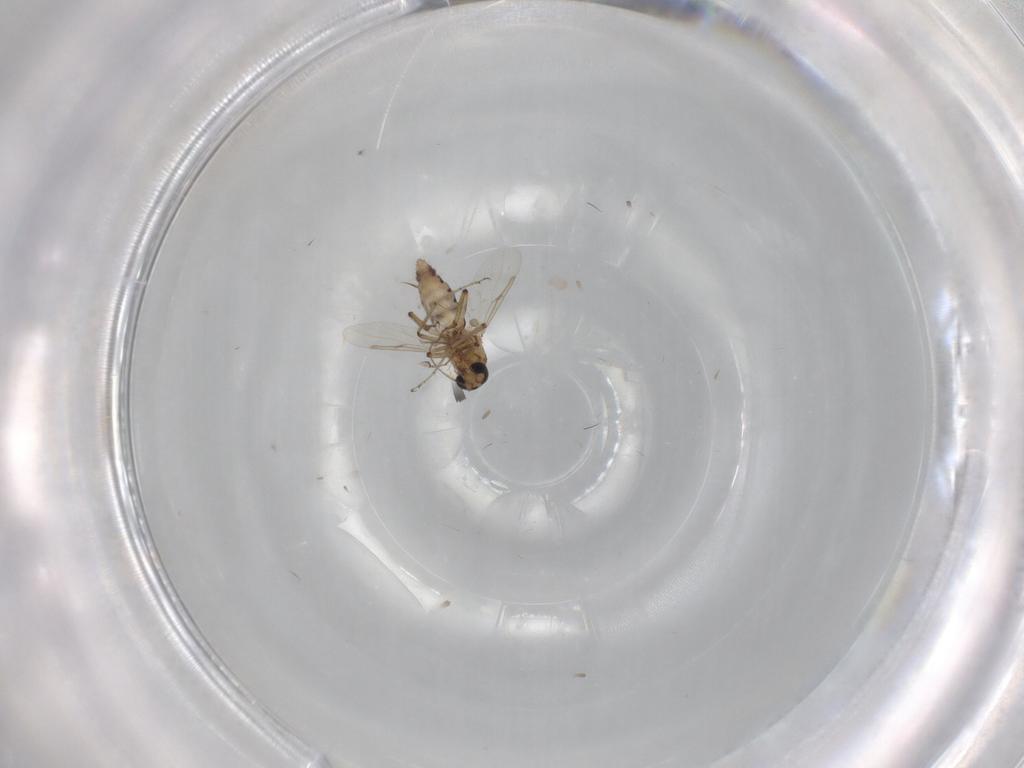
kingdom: Animalia
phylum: Arthropoda
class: Insecta
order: Diptera
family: Ceratopogonidae
